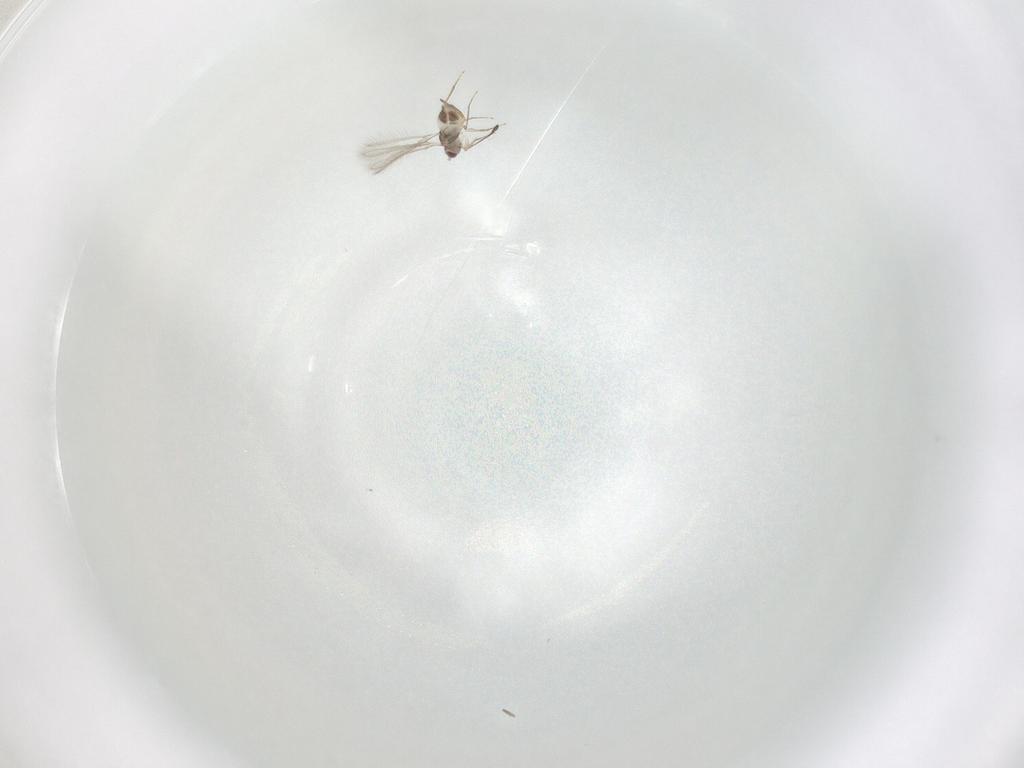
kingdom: Animalia
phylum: Arthropoda
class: Insecta
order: Hymenoptera
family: Mymaridae
